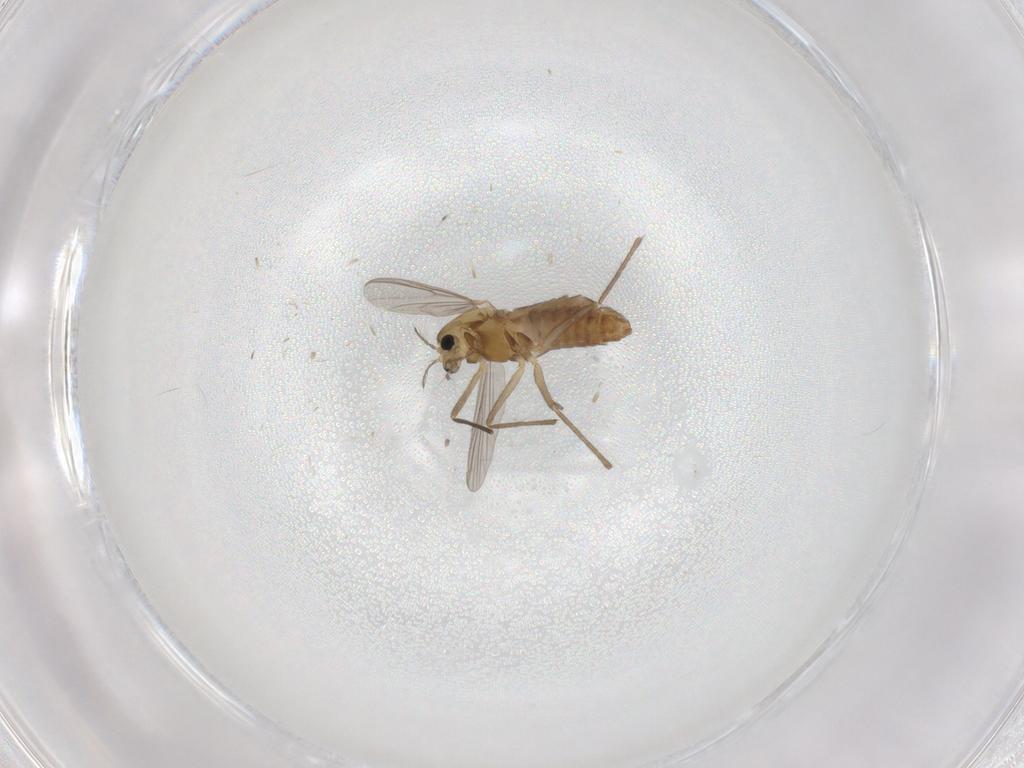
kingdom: Animalia
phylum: Arthropoda
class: Insecta
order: Diptera
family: Chironomidae
